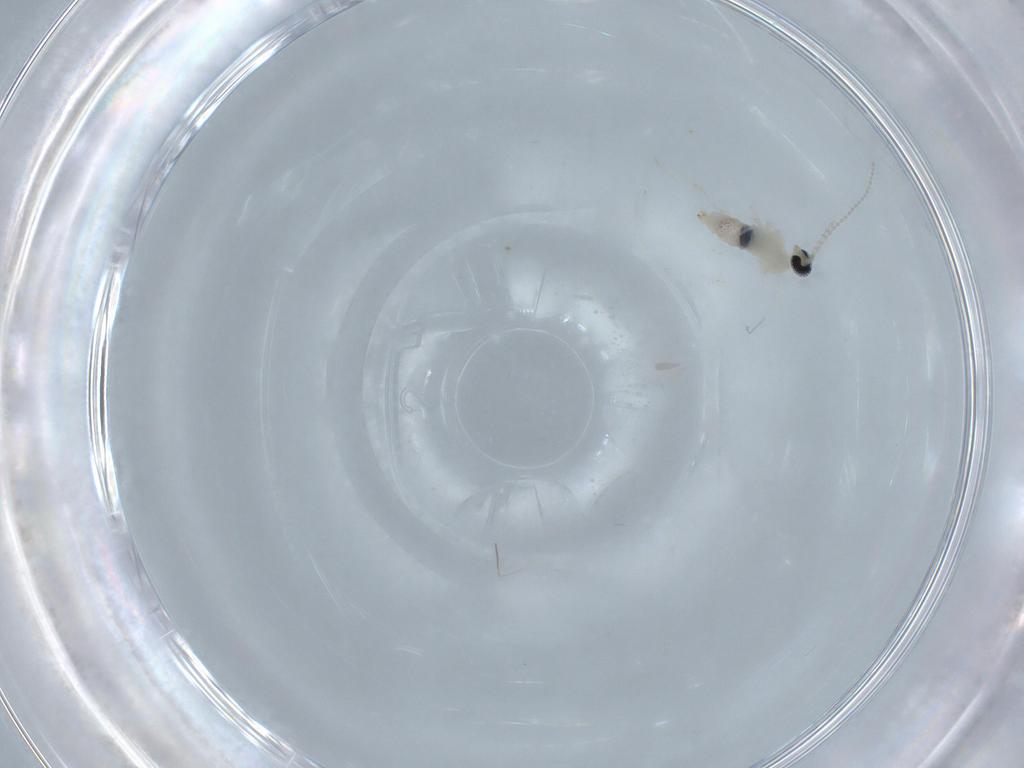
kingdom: Animalia
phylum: Arthropoda
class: Insecta
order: Diptera
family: Cecidomyiidae
